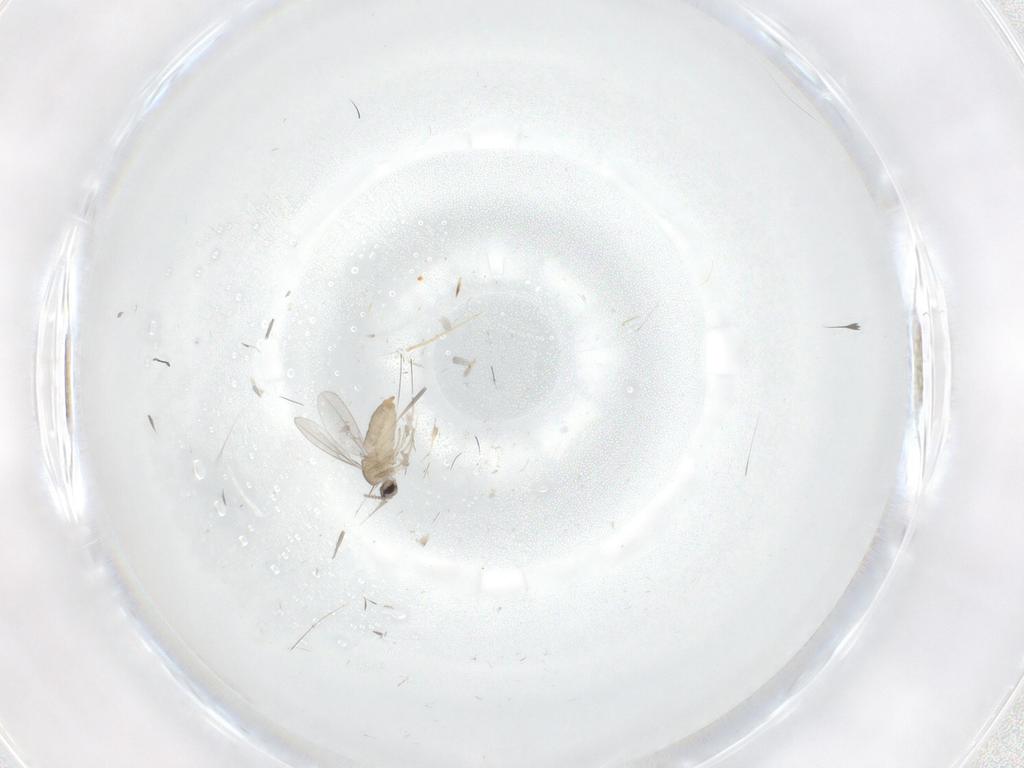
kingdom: Animalia
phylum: Arthropoda
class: Insecta
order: Diptera
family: Cecidomyiidae
